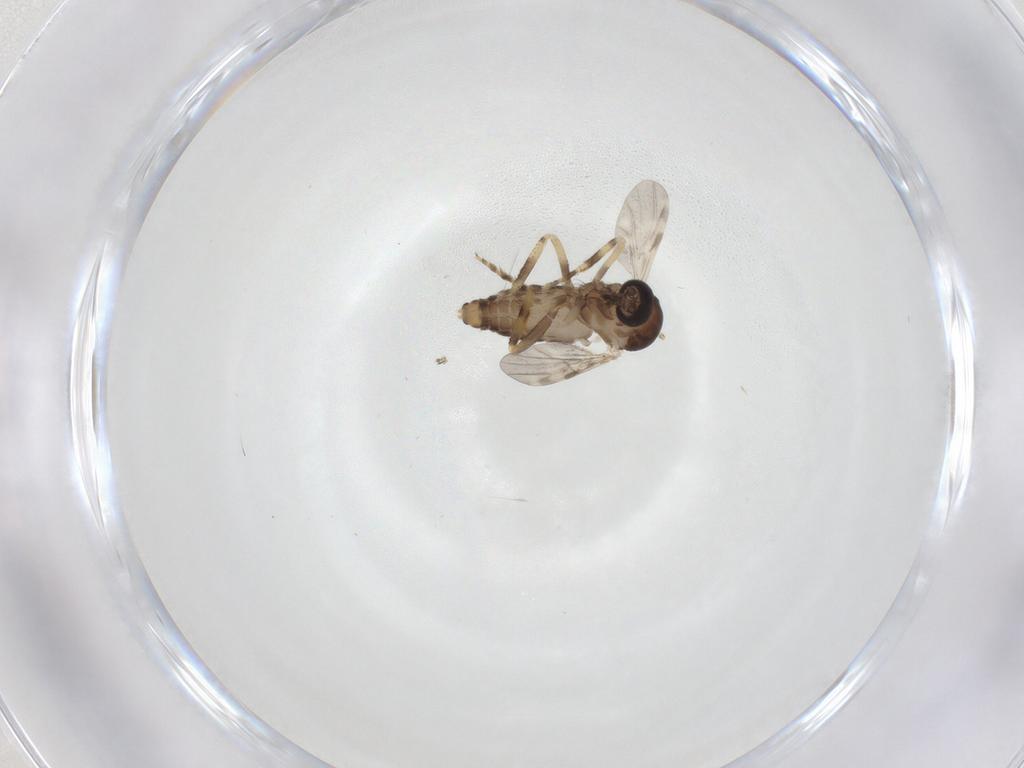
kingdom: Animalia
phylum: Arthropoda
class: Insecta
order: Diptera
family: Ceratopogonidae
